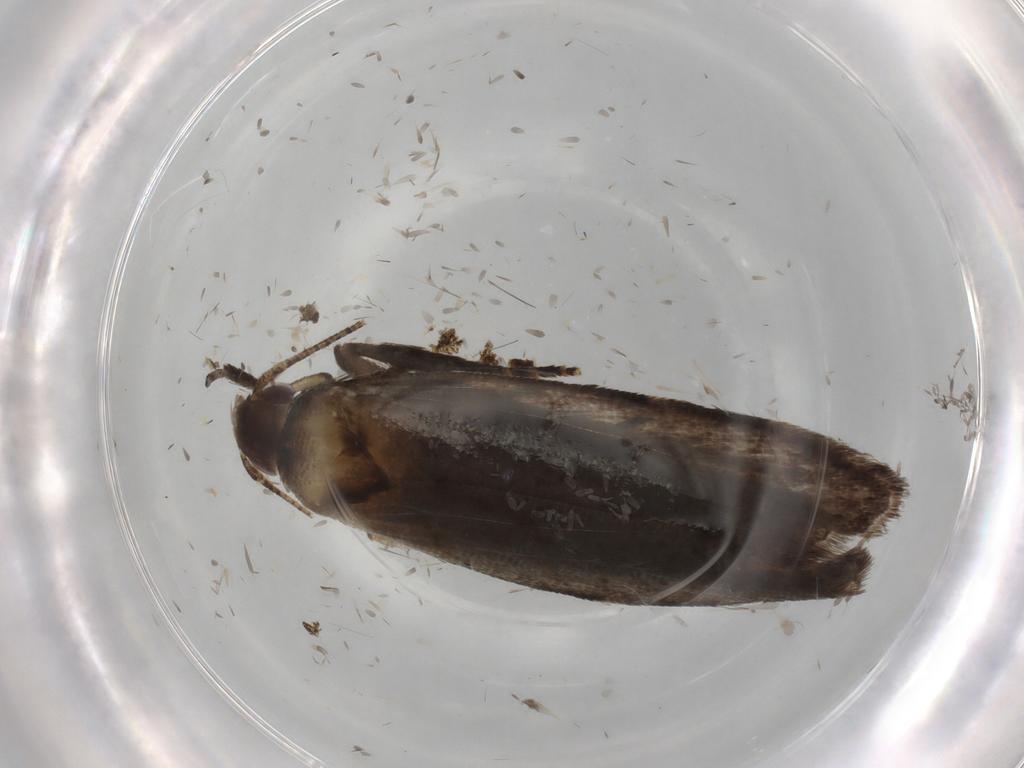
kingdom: Animalia
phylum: Arthropoda
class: Insecta
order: Lepidoptera
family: Gelechiidae
